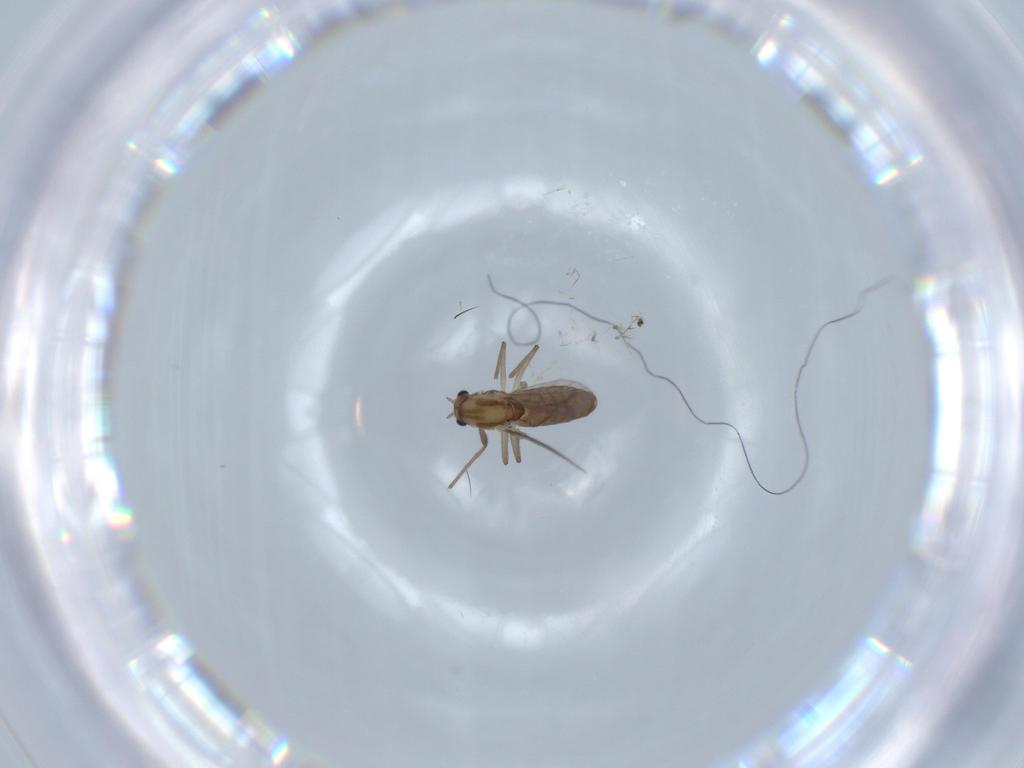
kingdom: Animalia
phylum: Arthropoda
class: Insecta
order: Diptera
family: Chironomidae
